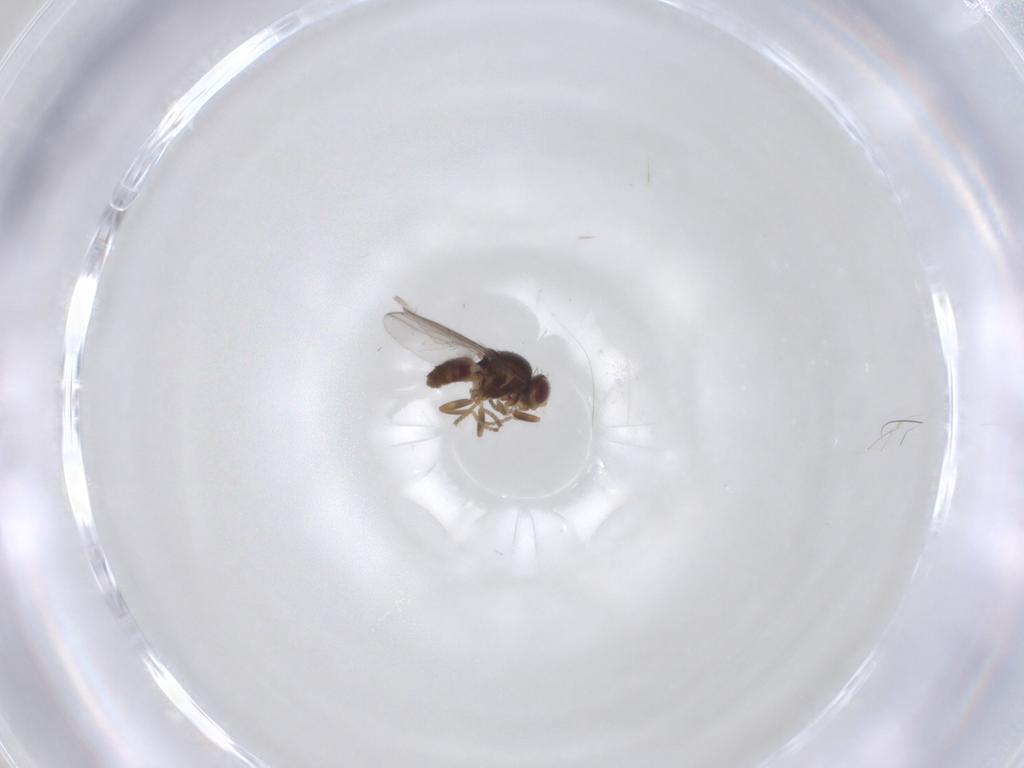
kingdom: Animalia
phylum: Arthropoda
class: Insecta
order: Diptera
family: Chloropidae
